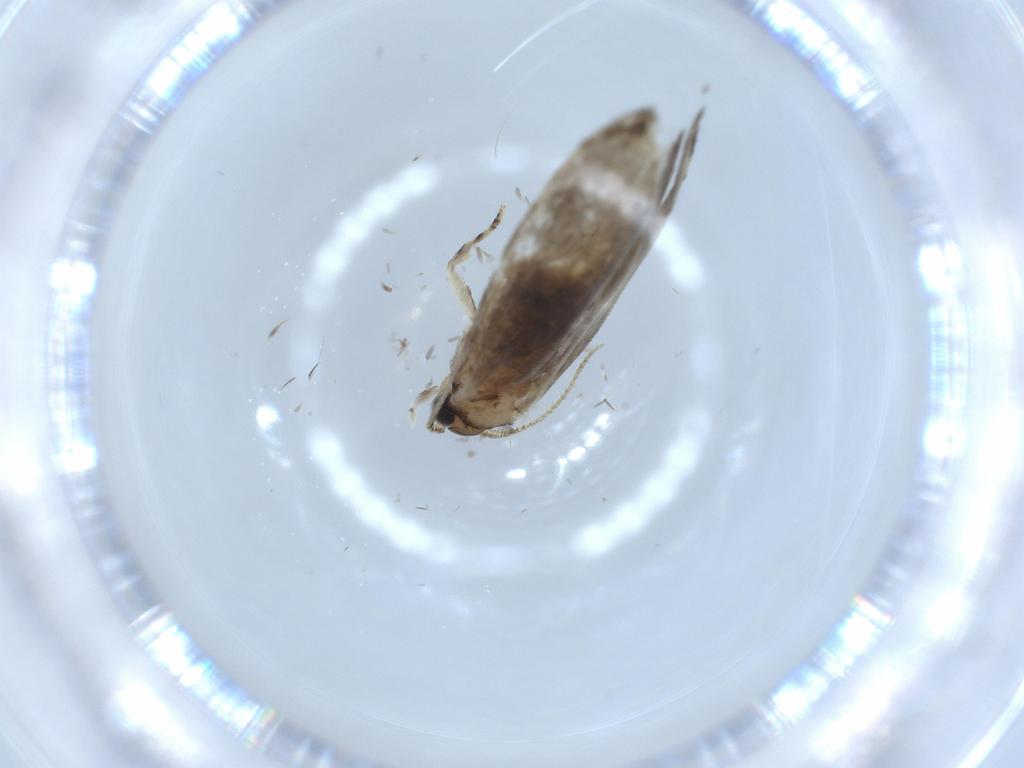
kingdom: Animalia
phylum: Arthropoda
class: Insecta
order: Lepidoptera
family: Tineidae
